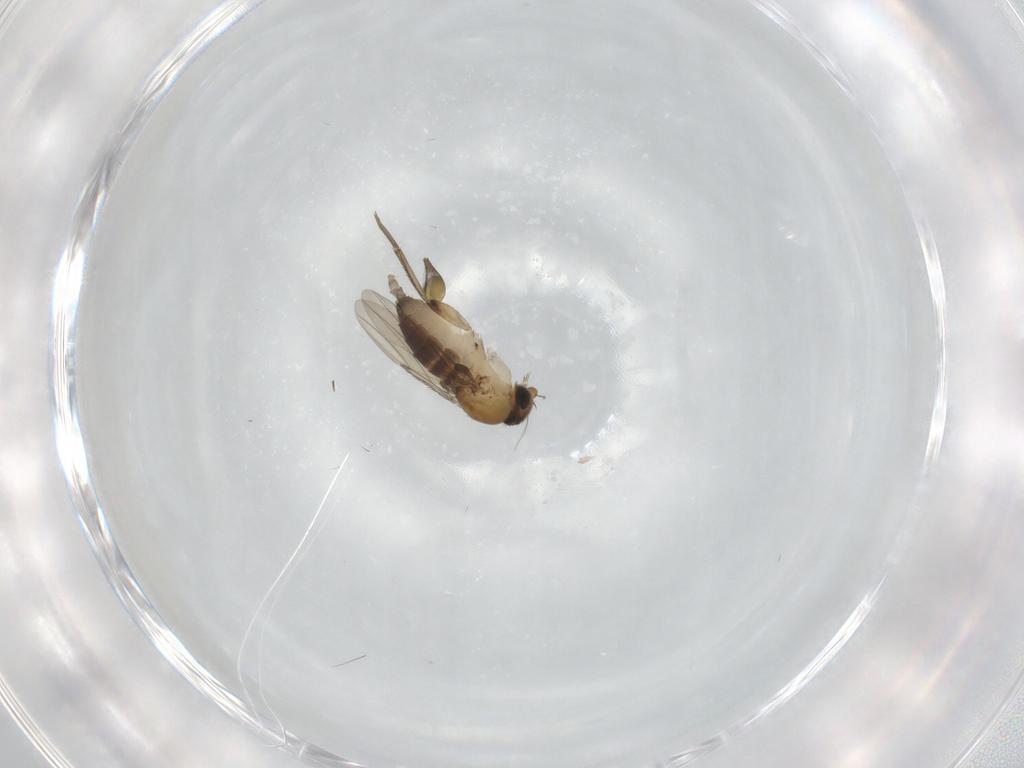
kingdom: Animalia
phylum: Arthropoda
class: Insecta
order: Diptera
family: Phoridae
